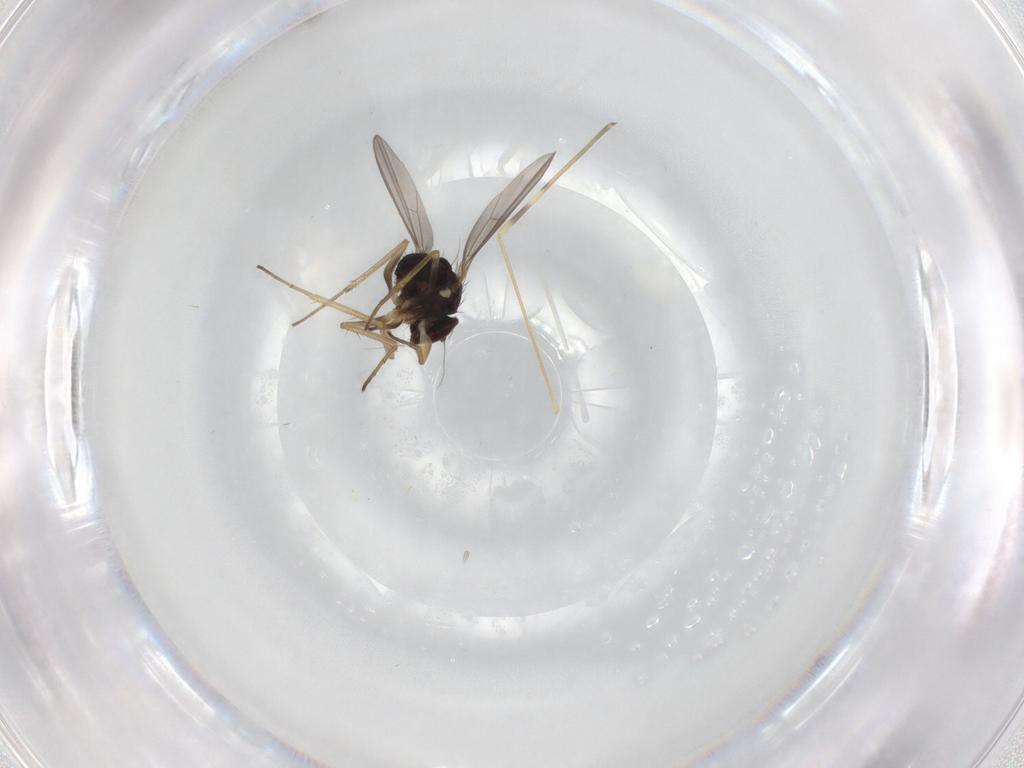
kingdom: Animalia
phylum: Arthropoda
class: Insecta
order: Diptera
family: Limoniidae
